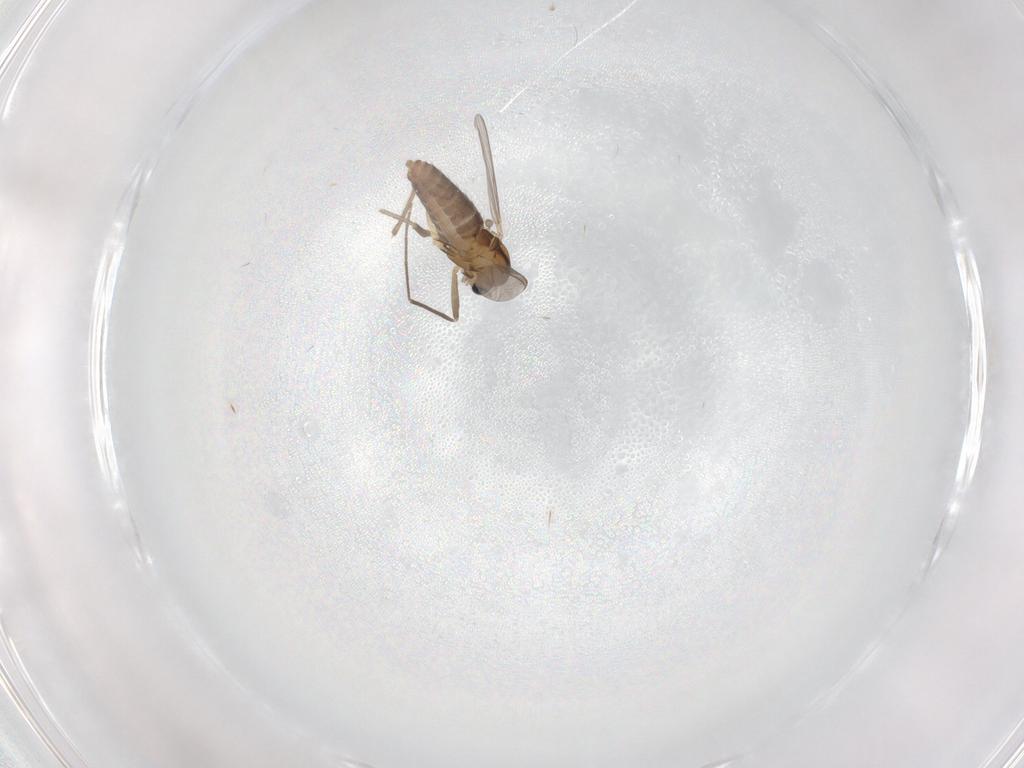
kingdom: Animalia
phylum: Arthropoda
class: Insecta
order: Diptera
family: Chironomidae
